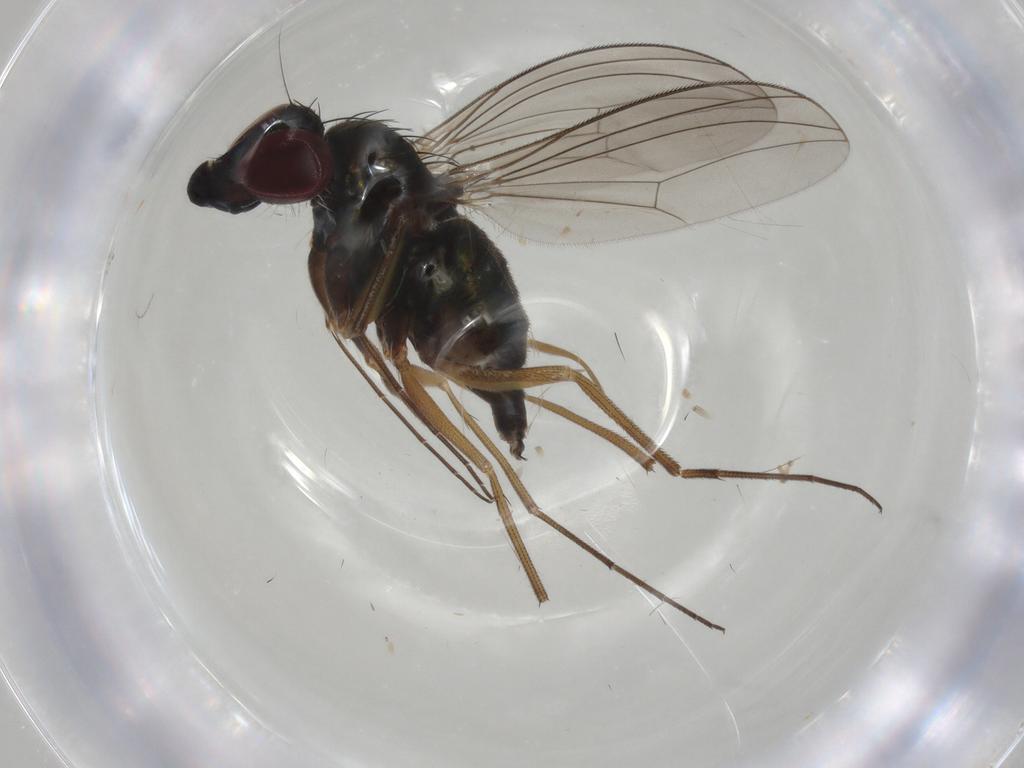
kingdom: Animalia
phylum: Arthropoda
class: Insecta
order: Diptera
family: Dolichopodidae
